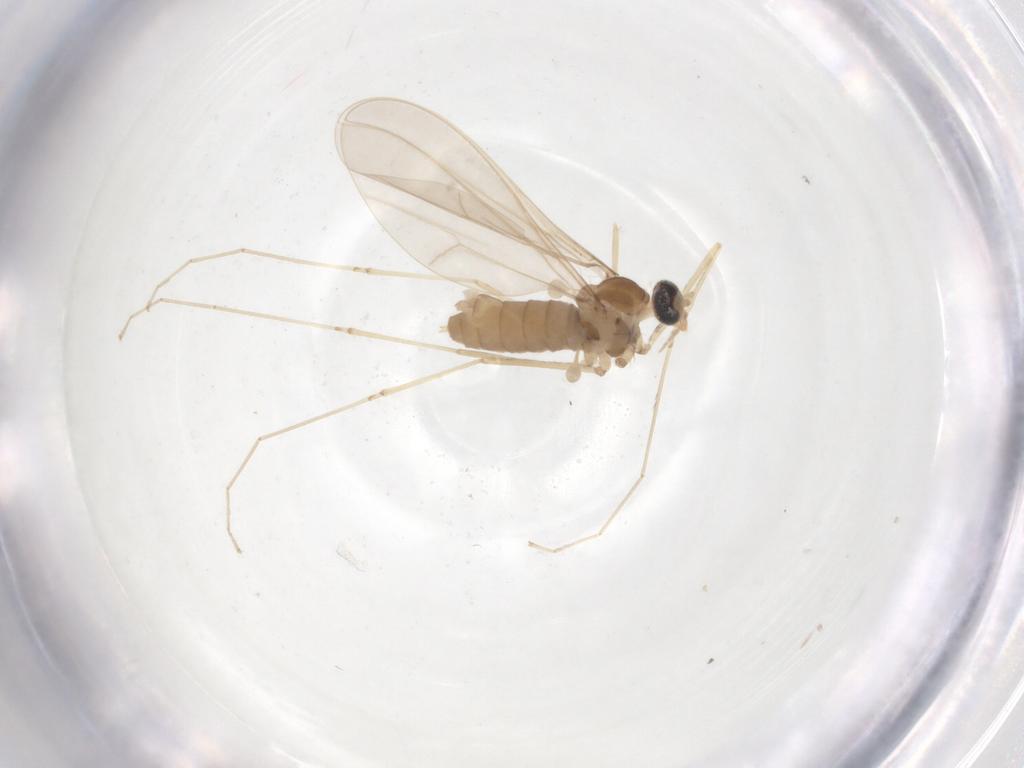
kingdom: Animalia
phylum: Arthropoda
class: Insecta
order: Diptera
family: Cecidomyiidae
